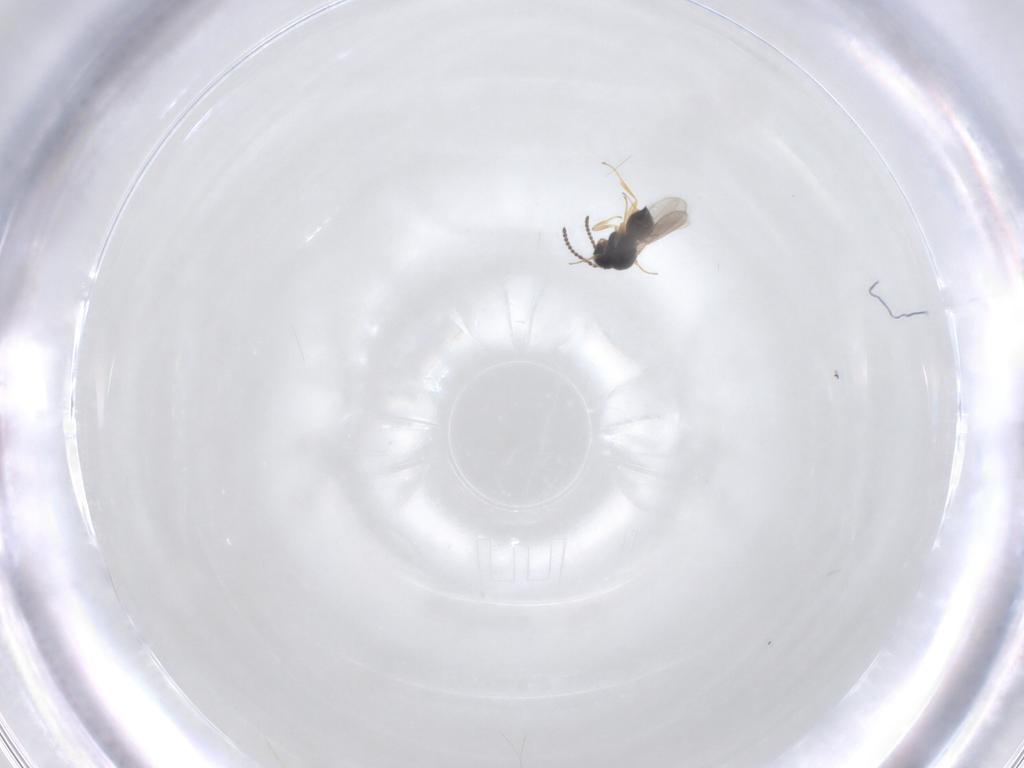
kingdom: Animalia
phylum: Arthropoda
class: Insecta
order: Hymenoptera
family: Scelionidae
